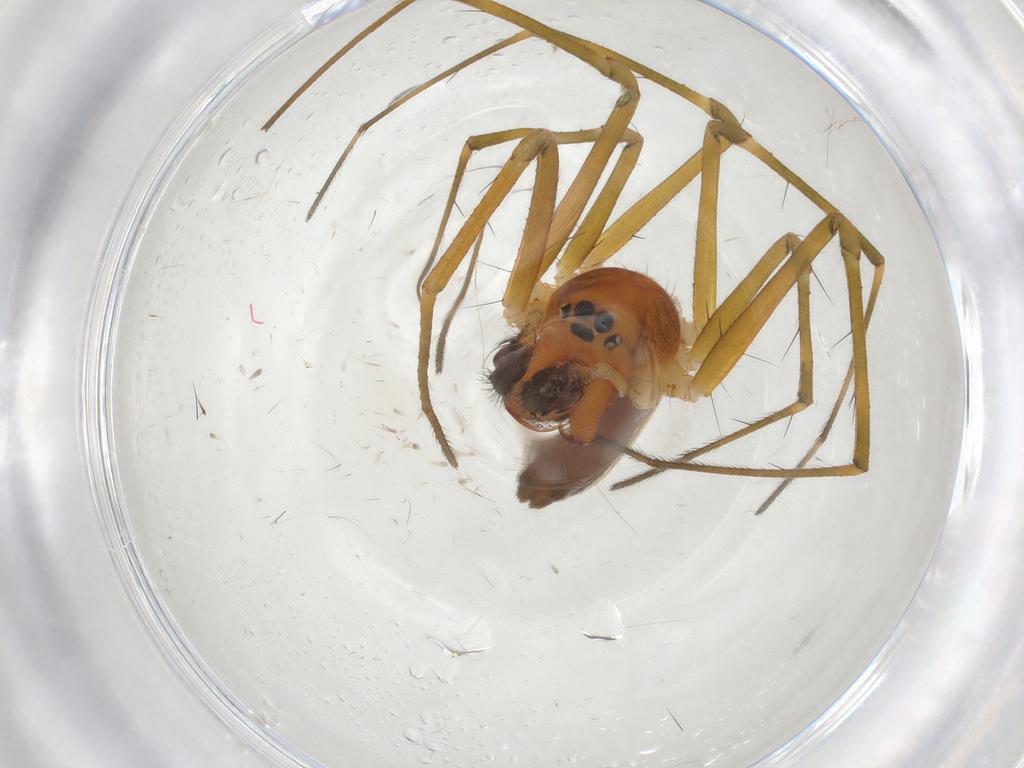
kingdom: Animalia
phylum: Arthropoda
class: Arachnida
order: Araneae
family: Linyphiidae
